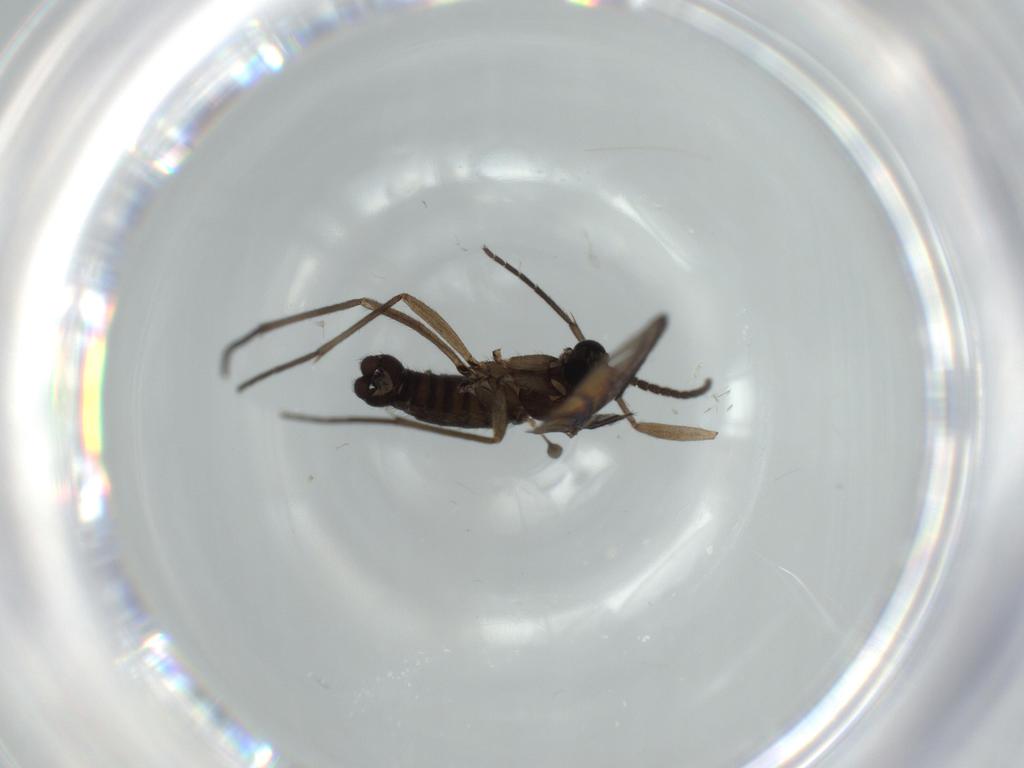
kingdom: Animalia
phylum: Arthropoda
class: Insecta
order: Diptera
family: Sciaridae
